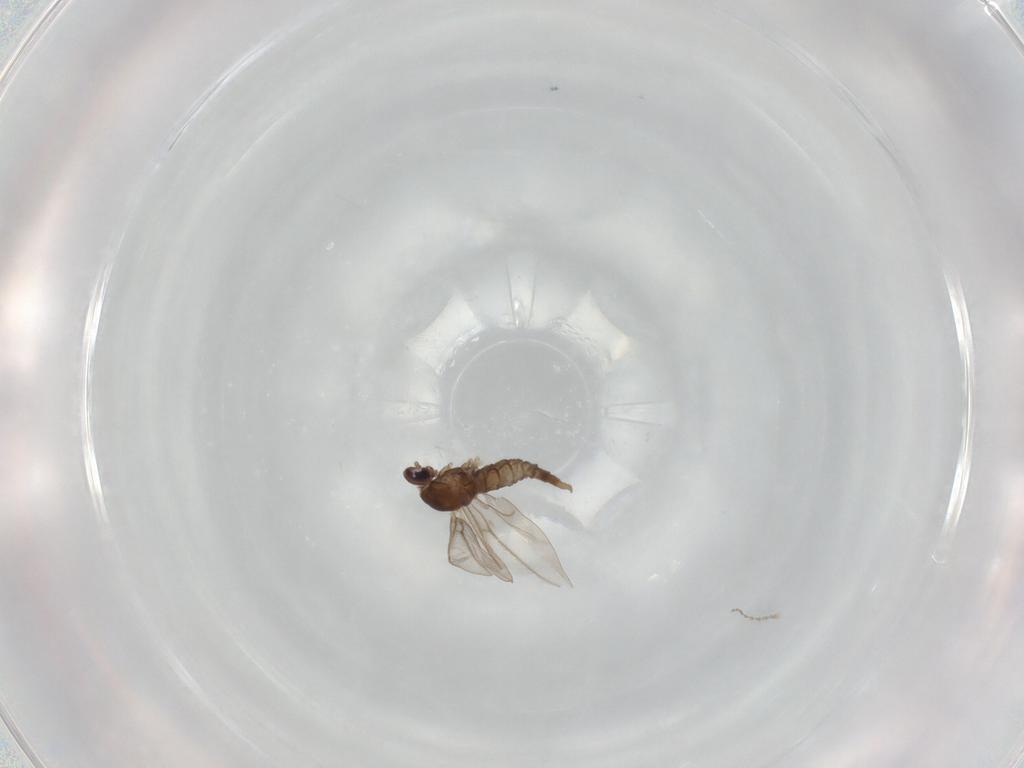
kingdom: Animalia
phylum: Arthropoda
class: Insecta
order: Diptera
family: Cecidomyiidae
